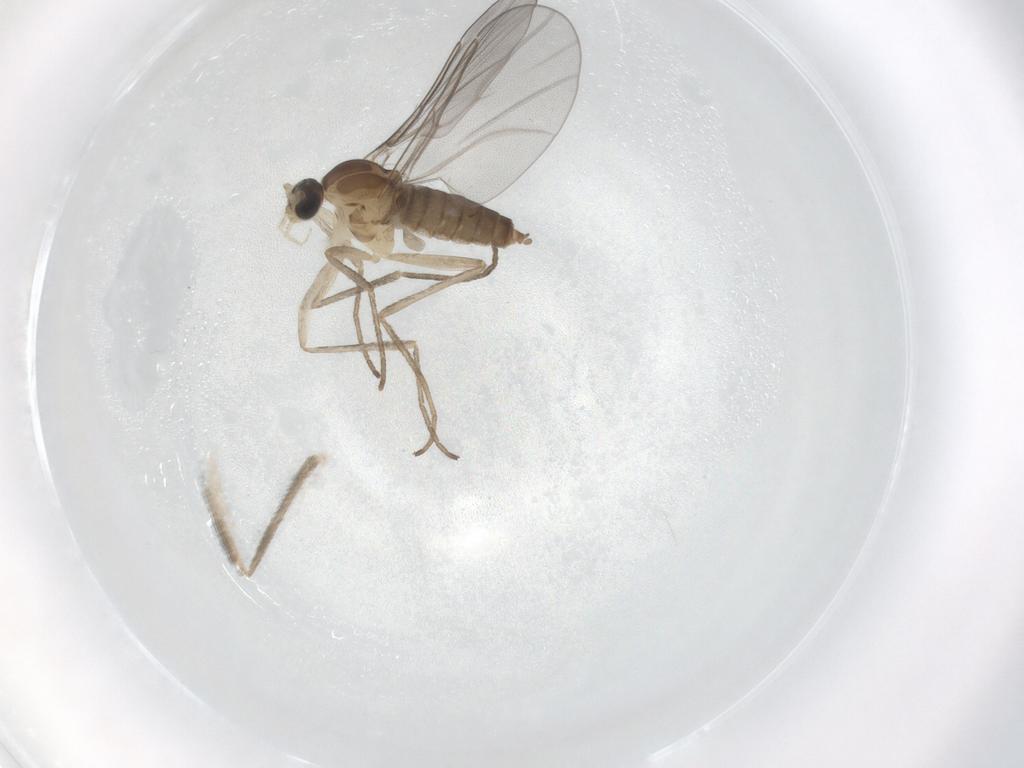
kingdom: Animalia
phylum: Arthropoda
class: Insecta
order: Diptera
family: Cecidomyiidae
